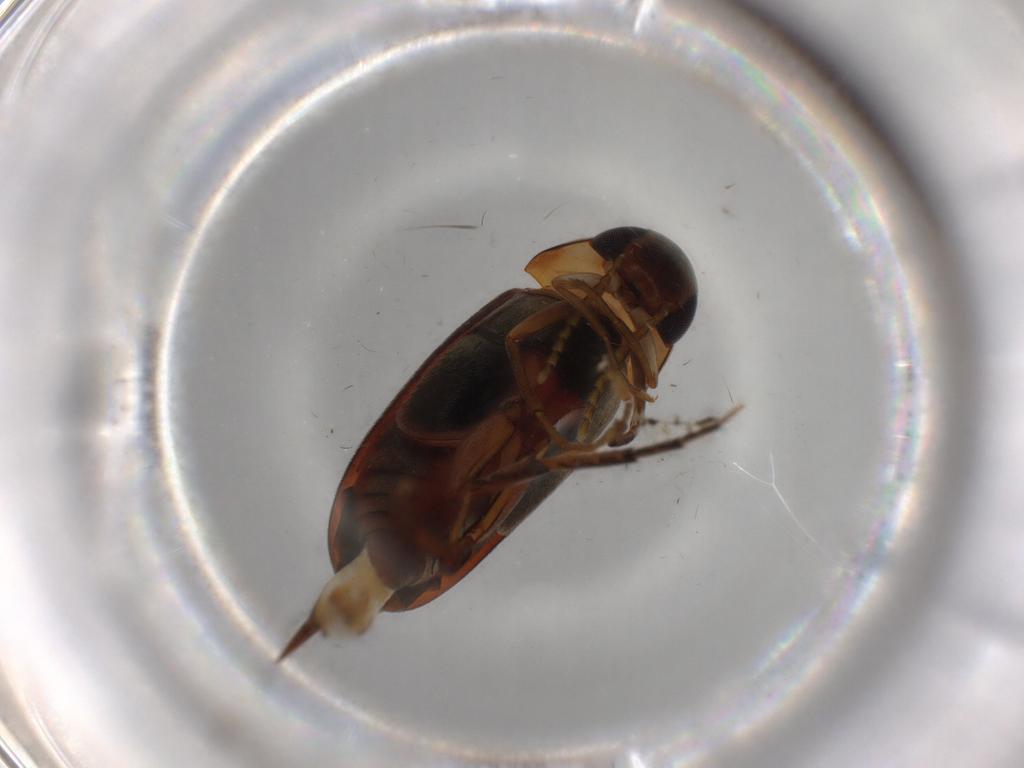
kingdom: Animalia
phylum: Arthropoda
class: Insecta
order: Coleoptera
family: Mordellidae
